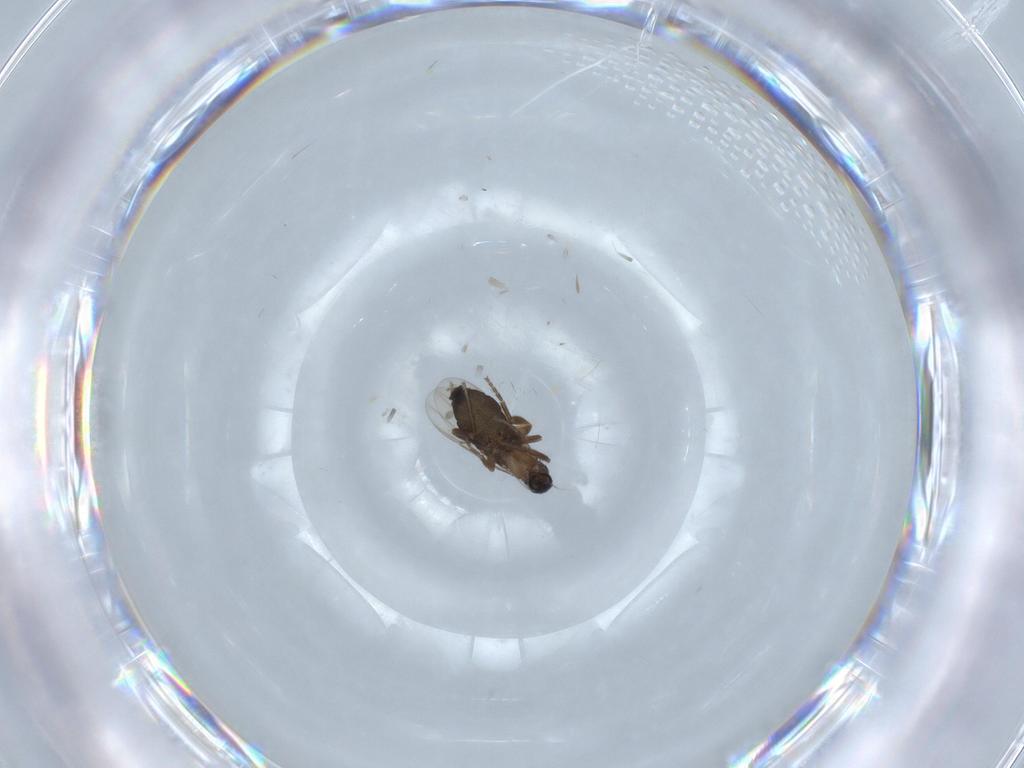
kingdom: Animalia
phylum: Arthropoda
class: Insecta
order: Diptera
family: Phoridae
